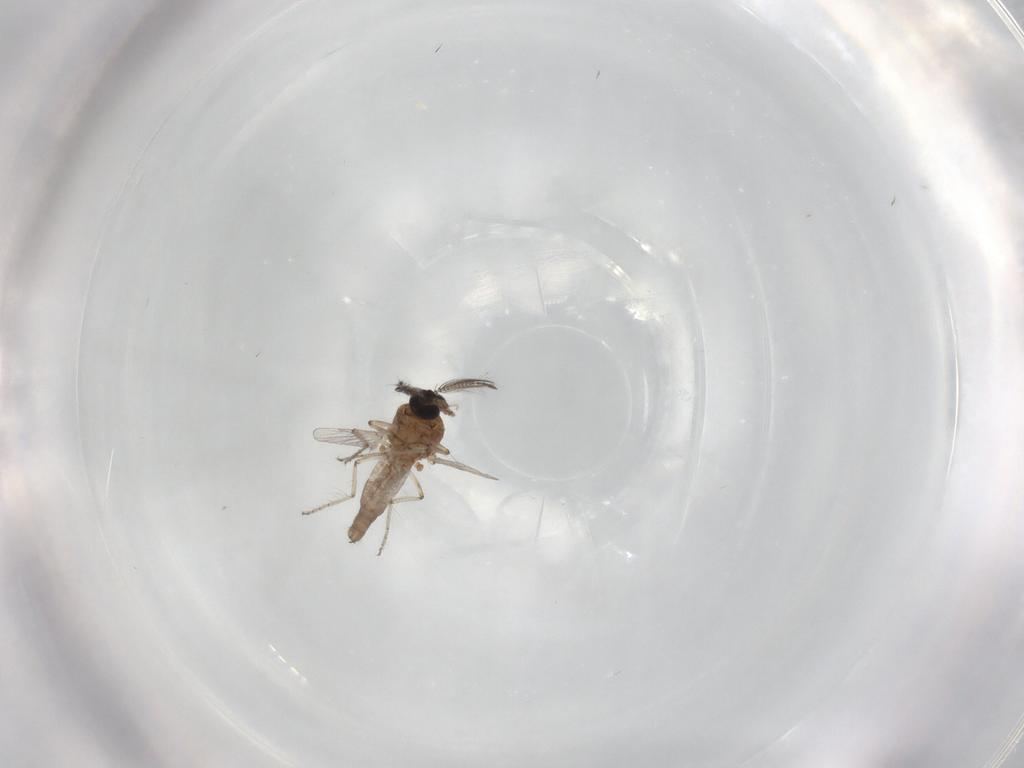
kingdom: Animalia
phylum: Arthropoda
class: Insecta
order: Diptera
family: Ceratopogonidae
